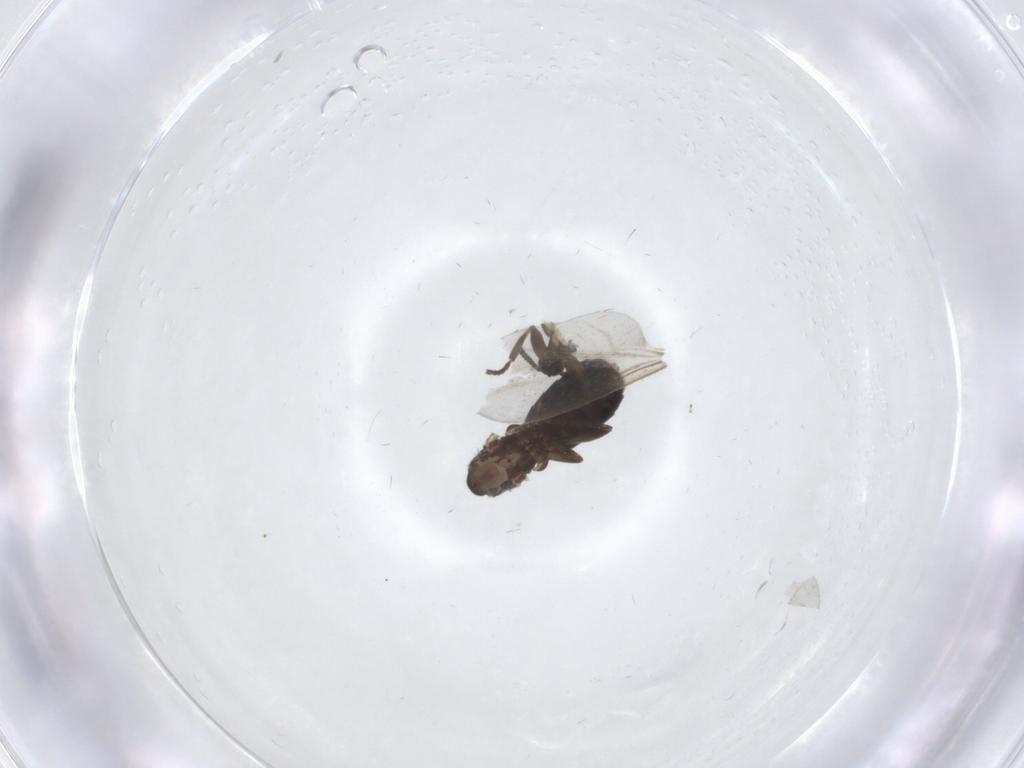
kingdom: Animalia
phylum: Arthropoda
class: Insecta
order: Diptera
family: Scatopsidae
